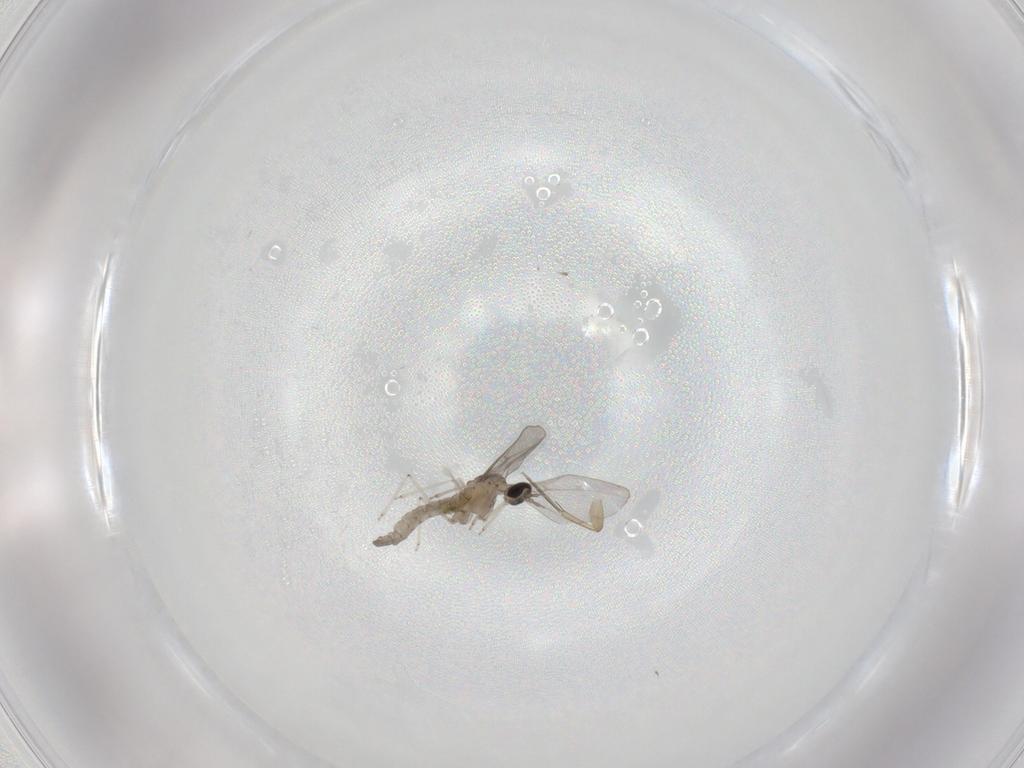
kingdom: Animalia
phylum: Arthropoda
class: Insecta
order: Diptera
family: Cecidomyiidae
